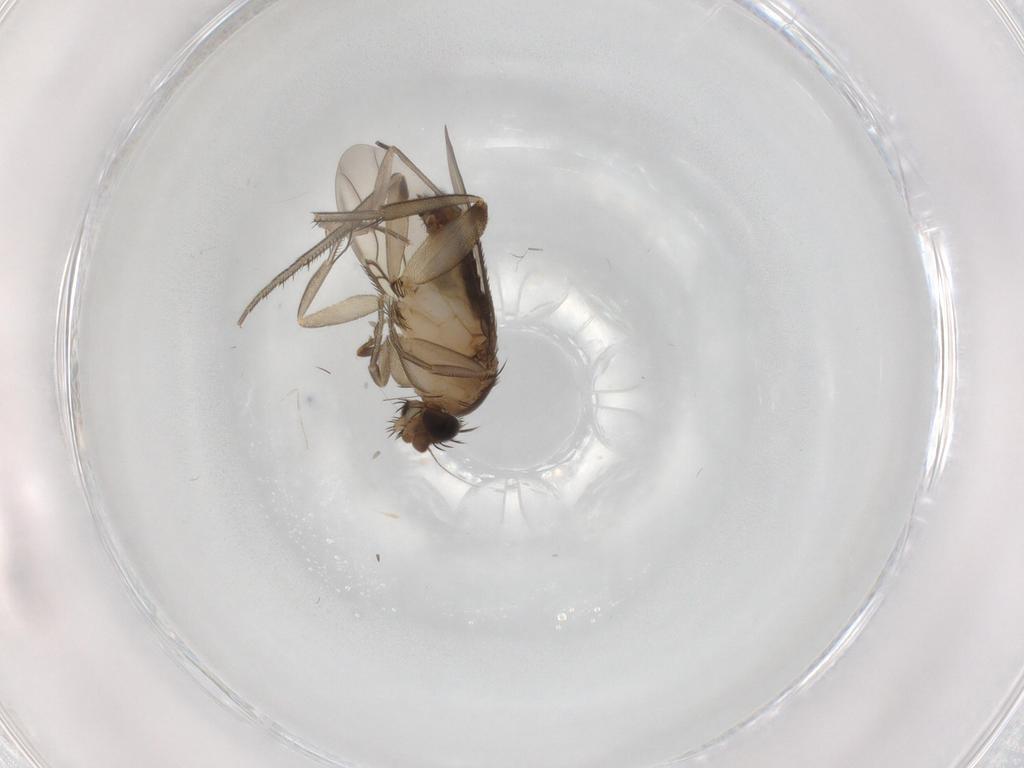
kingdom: Animalia
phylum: Arthropoda
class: Insecta
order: Diptera
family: Phoridae
